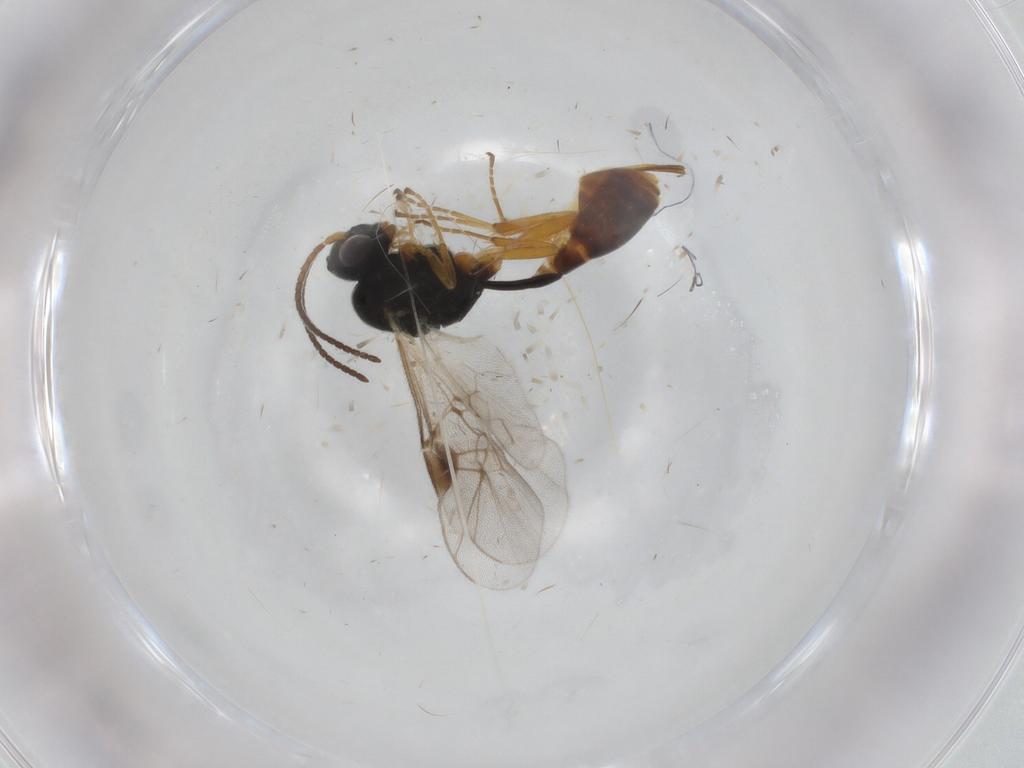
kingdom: Animalia
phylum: Arthropoda
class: Insecta
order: Hymenoptera
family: Ichneumonidae
